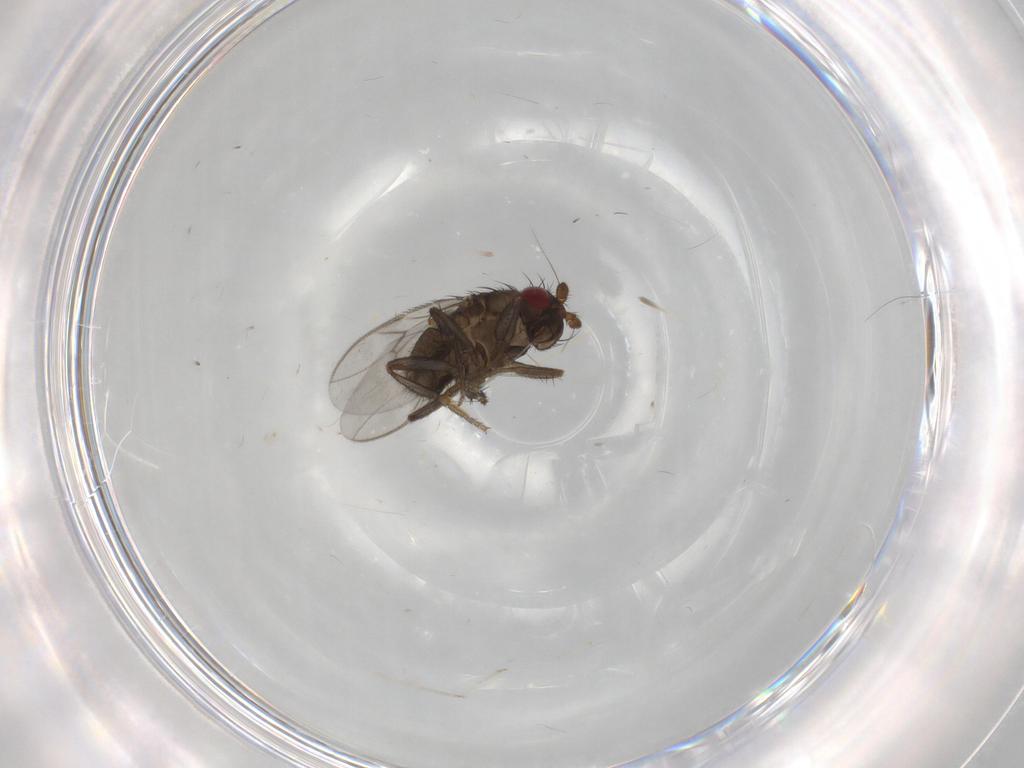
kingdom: Animalia
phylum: Arthropoda
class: Insecta
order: Diptera
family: Sphaeroceridae
